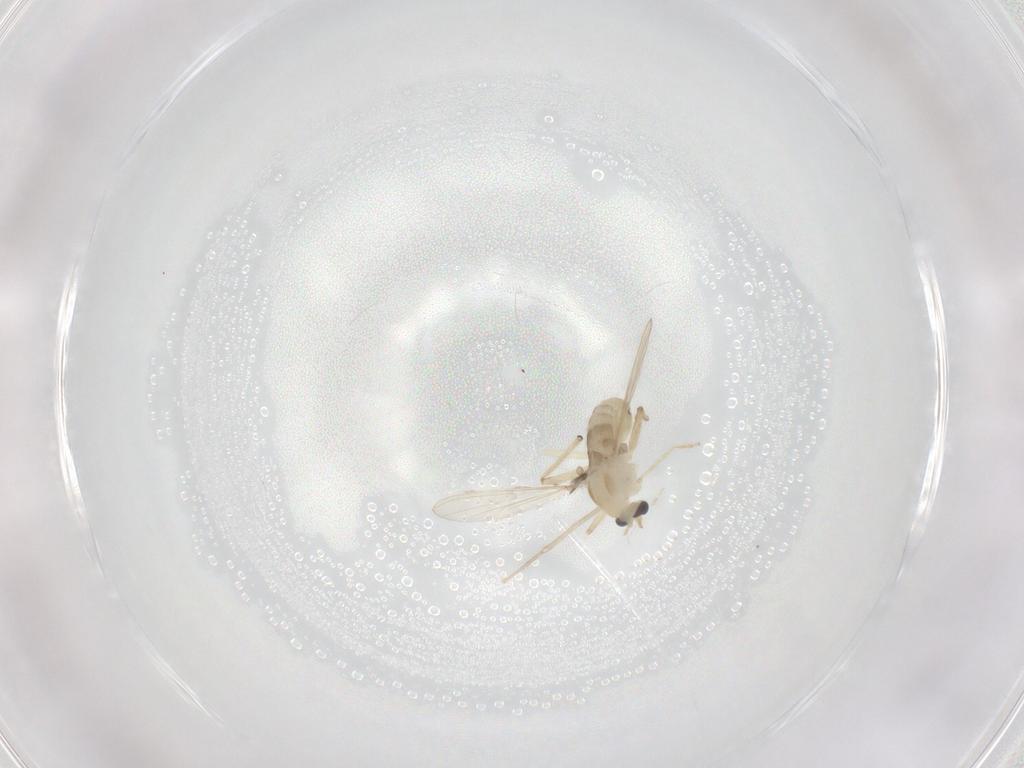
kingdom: Animalia
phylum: Arthropoda
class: Insecta
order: Diptera
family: Chironomidae
